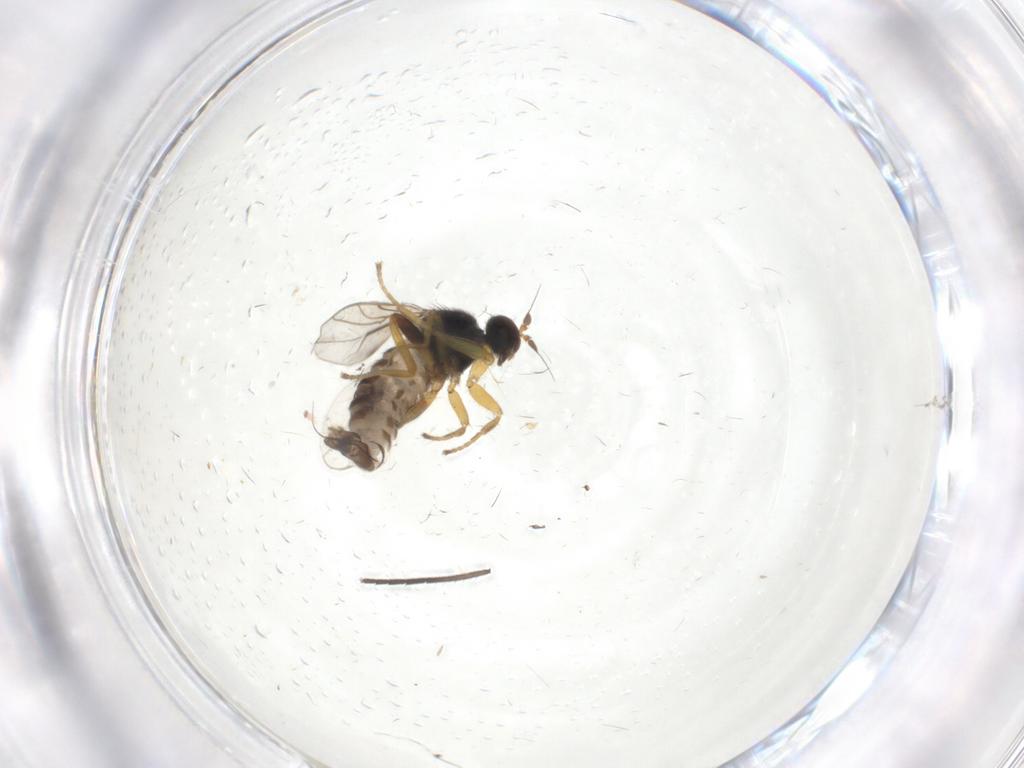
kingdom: Animalia
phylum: Arthropoda
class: Insecta
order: Diptera
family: Hybotidae
